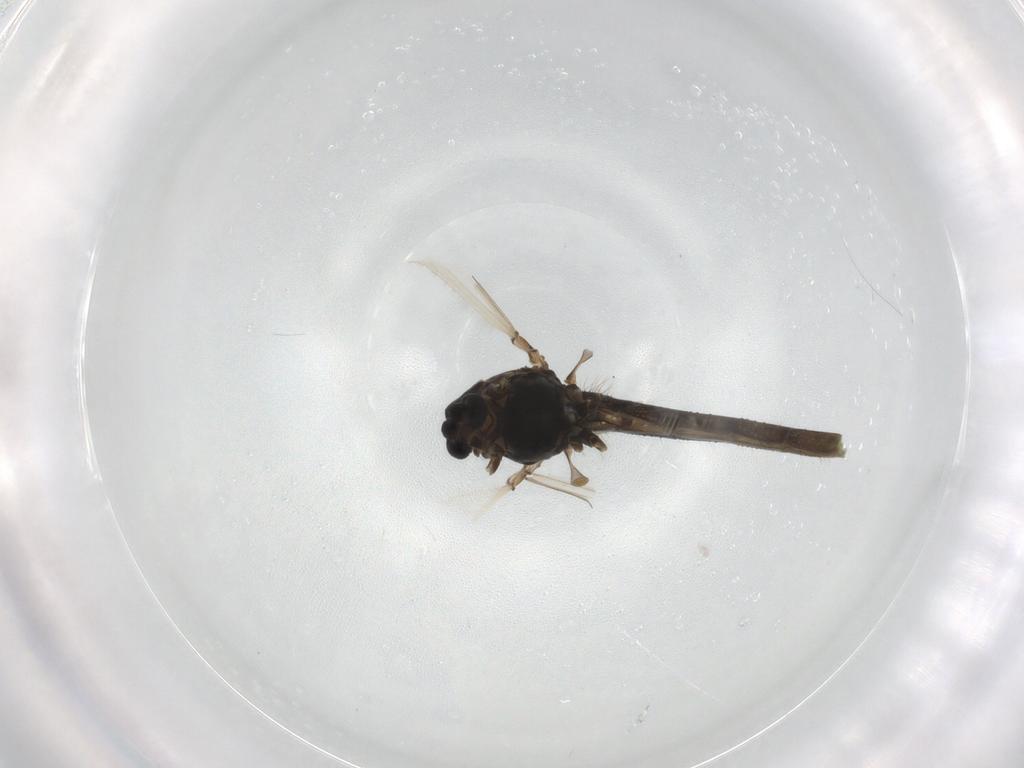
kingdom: Animalia
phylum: Arthropoda
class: Insecta
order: Diptera
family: Chironomidae
